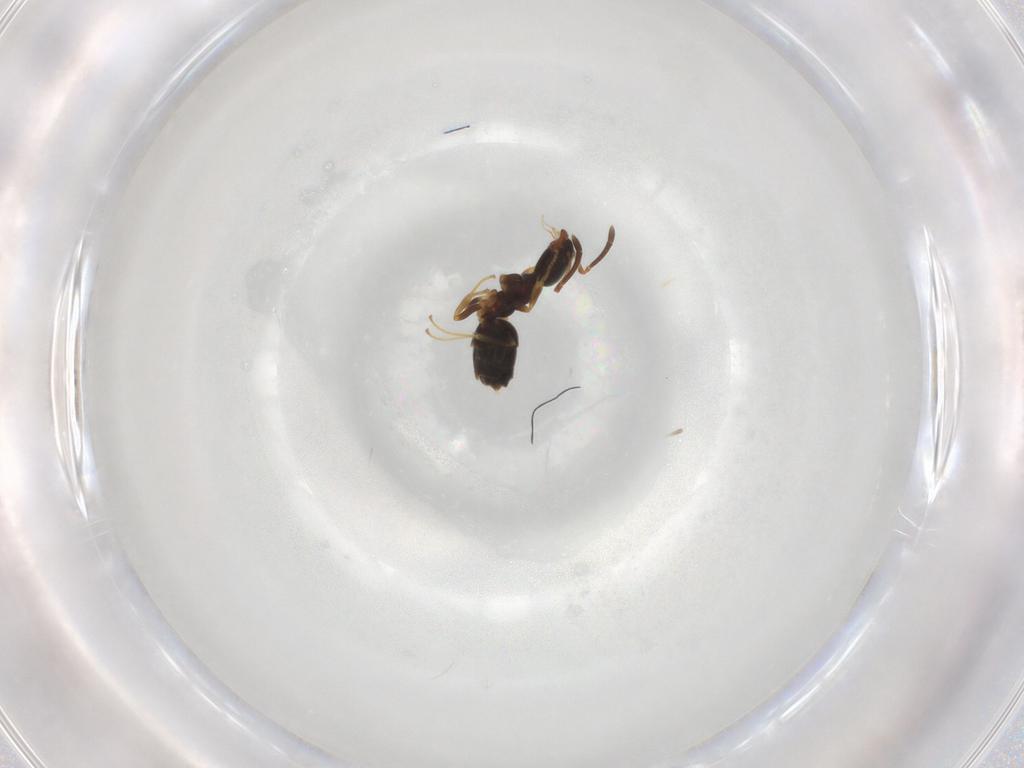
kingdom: Animalia
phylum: Arthropoda
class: Insecta
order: Hymenoptera
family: Formicidae
